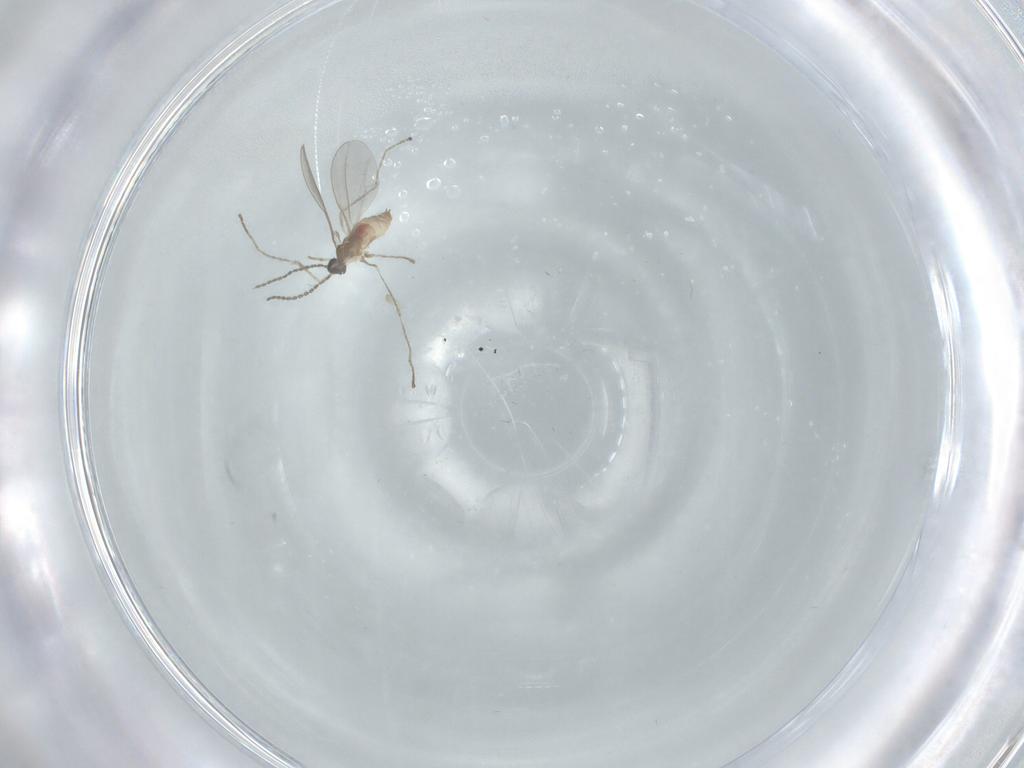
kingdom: Animalia
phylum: Arthropoda
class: Insecta
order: Diptera
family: Cecidomyiidae
